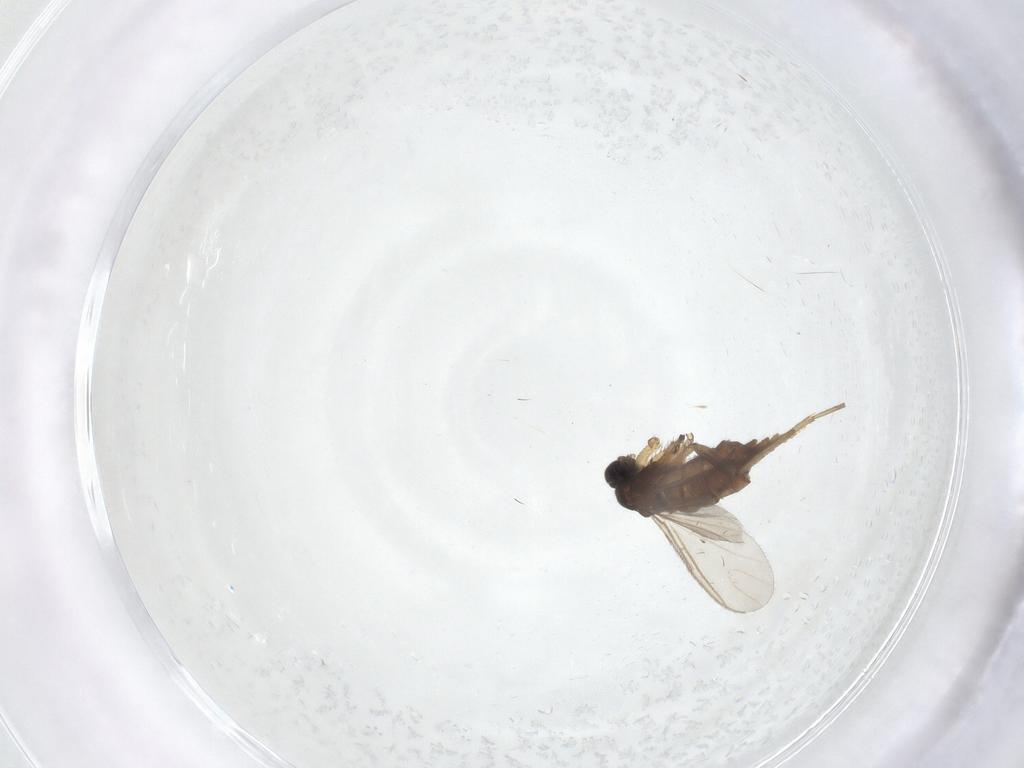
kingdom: Animalia
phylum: Arthropoda
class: Insecta
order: Diptera
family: Sciaridae
